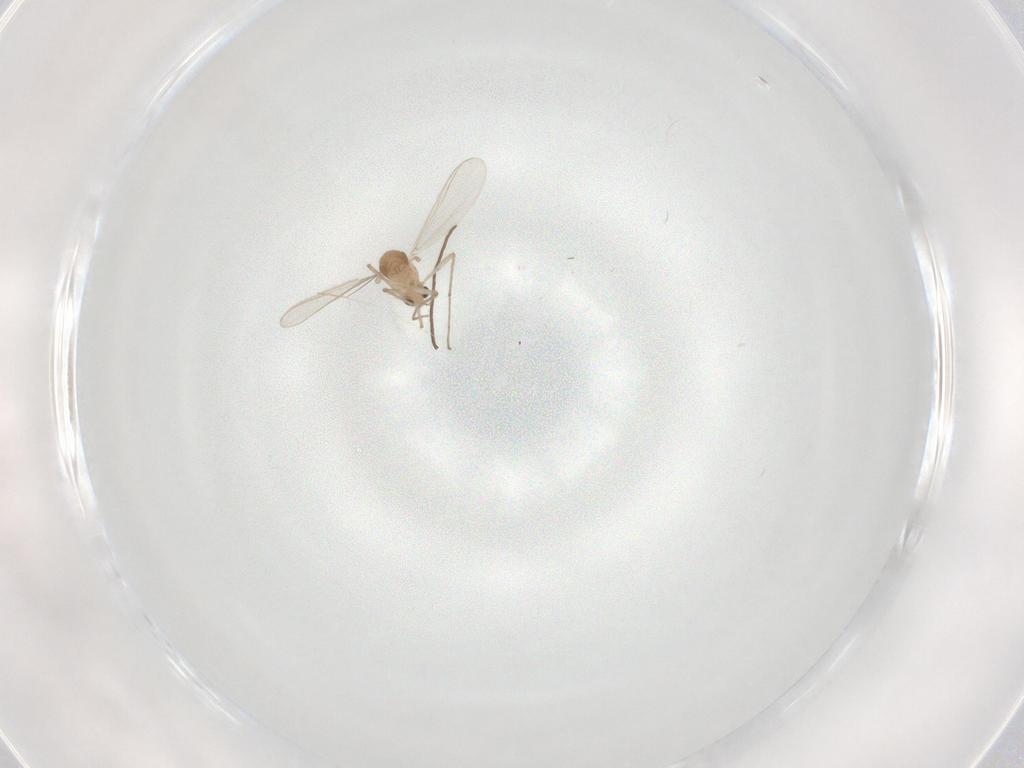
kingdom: Animalia
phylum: Arthropoda
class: Insecta
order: Diptera
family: Chironomidae
